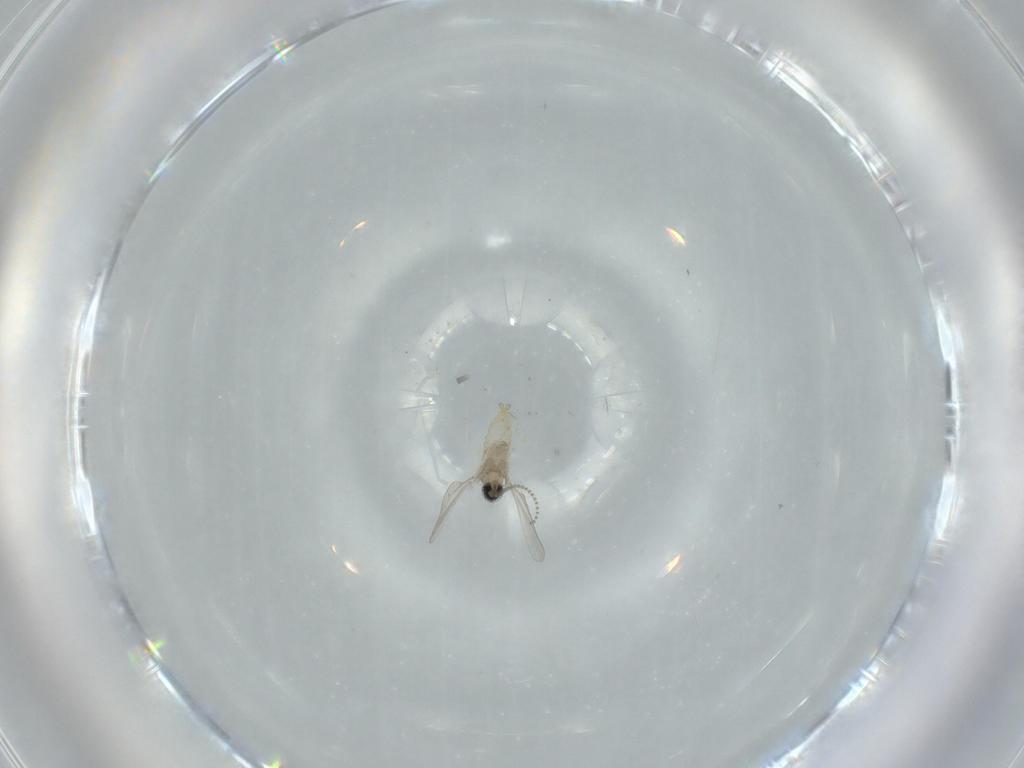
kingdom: Animalia
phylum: Arthropoda
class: Insecta
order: Diptera
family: Cecidomyiidae
